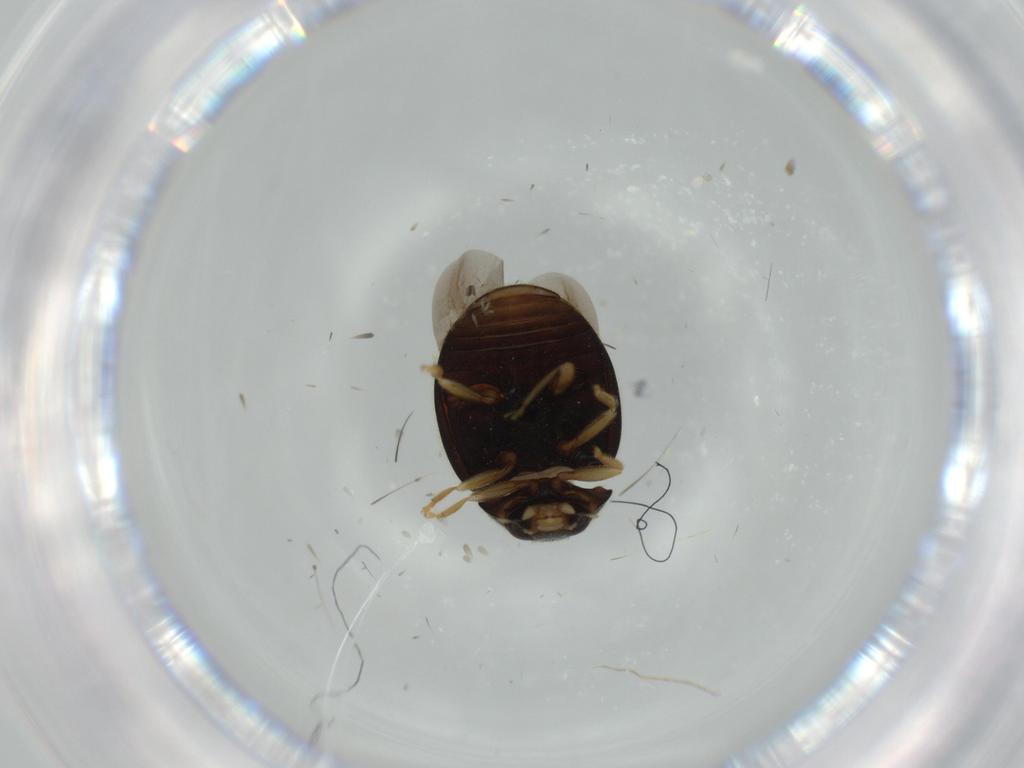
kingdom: Animalia
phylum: Arthropoda
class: Insecta
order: Coleoptera
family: Coccinellidae
